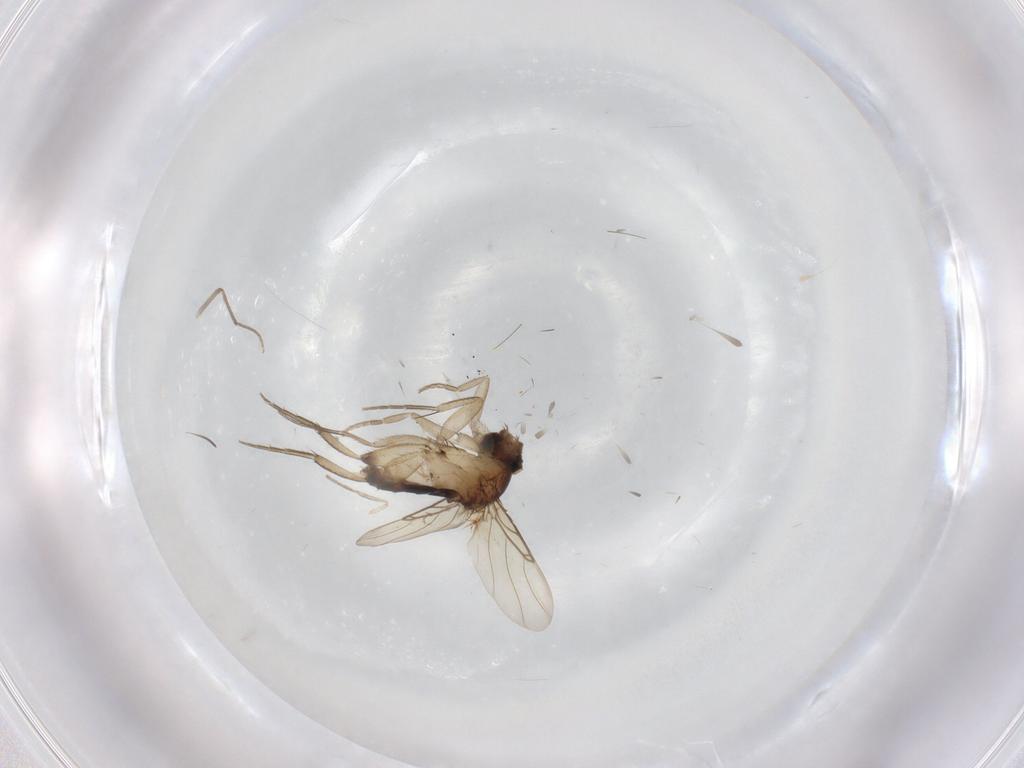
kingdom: Animalia
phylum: Arthropoda
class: Insecta
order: Diptera
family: Phoridae
